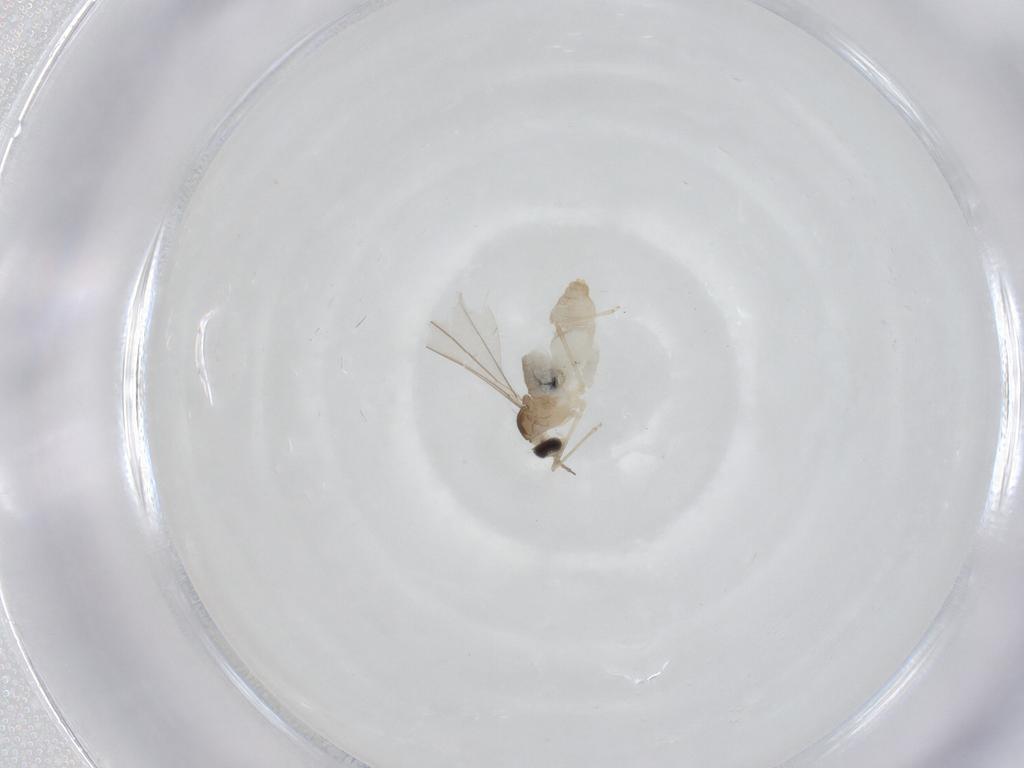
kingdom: Animalia
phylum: Arthropoda
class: Insecta
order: Diptera
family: Cecidomyiidae
